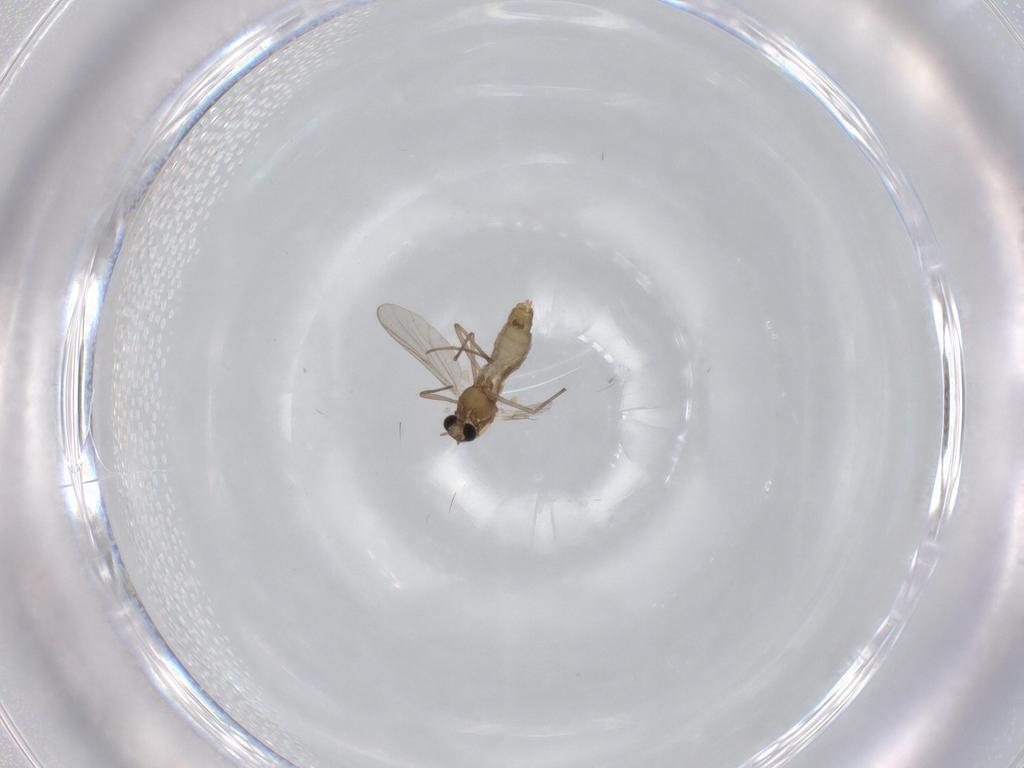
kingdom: Animalia
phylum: Arthropoda
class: Insecta
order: Diptera
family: Chironomidae
